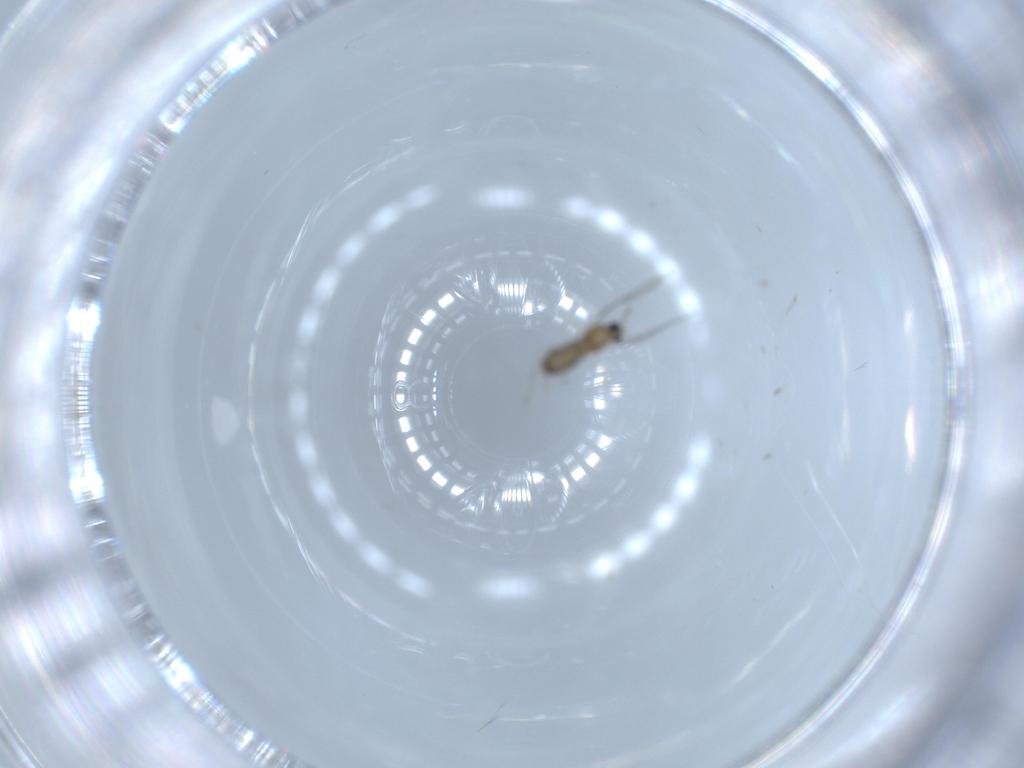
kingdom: Animalia
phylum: Arthropoda
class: Insecta
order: Diptera
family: Cecidomyiidae
